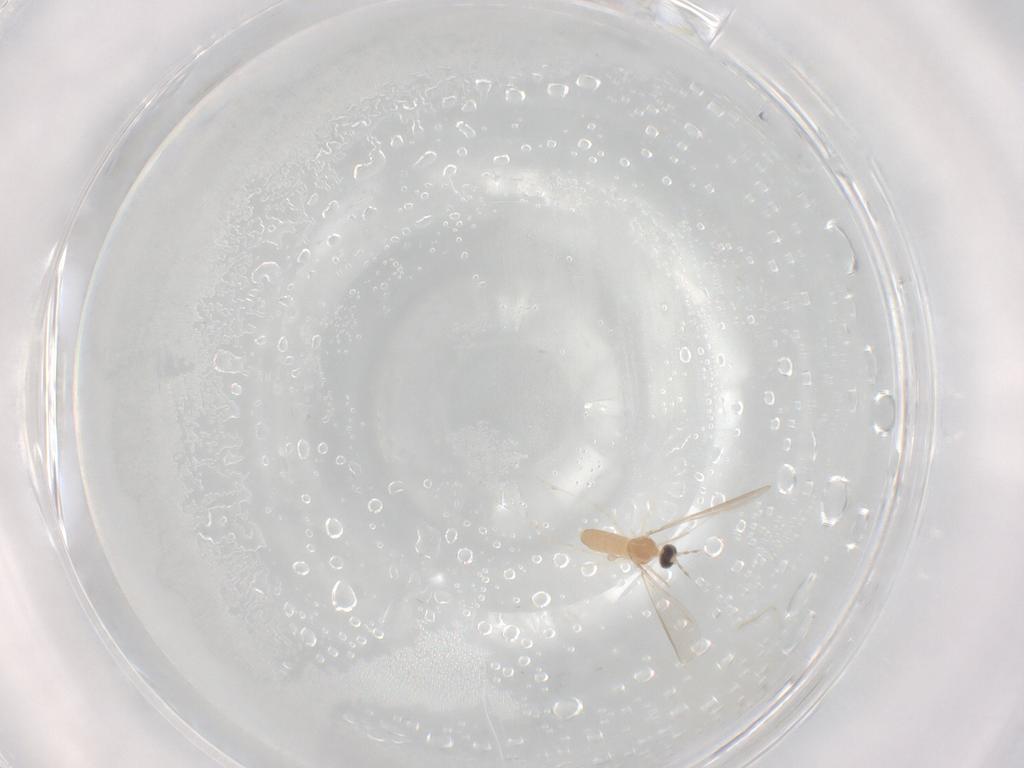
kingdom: Animalia
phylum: Arthropoda
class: Insecta
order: Diptera
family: Cecidomyiidae
